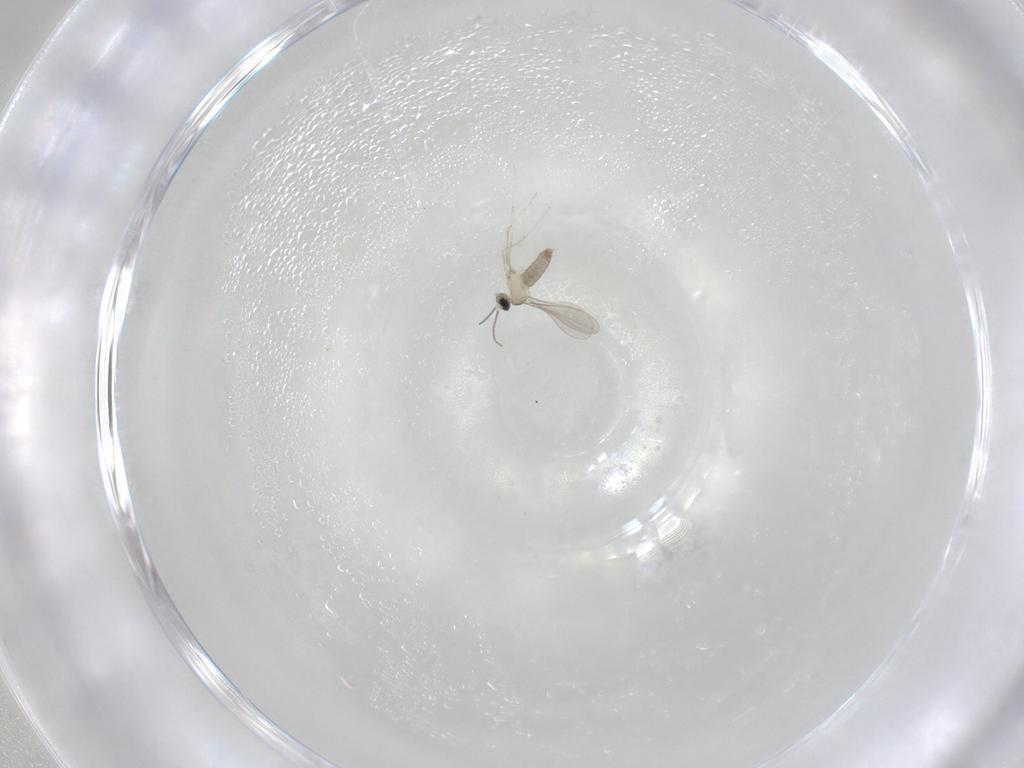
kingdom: Animalia
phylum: Arthropoda
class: Insecta
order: Diptera
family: Cecidomyiidae
